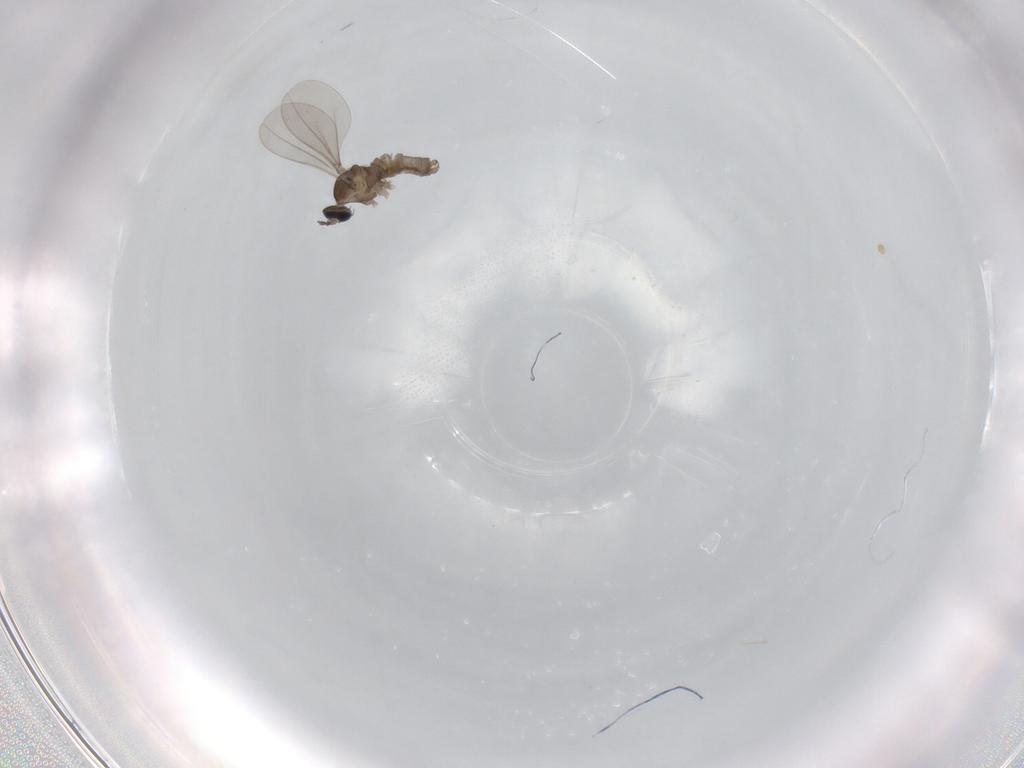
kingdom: Animalia
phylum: Arthropoda
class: Insecta
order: Diptera
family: Cecidomyiidae
